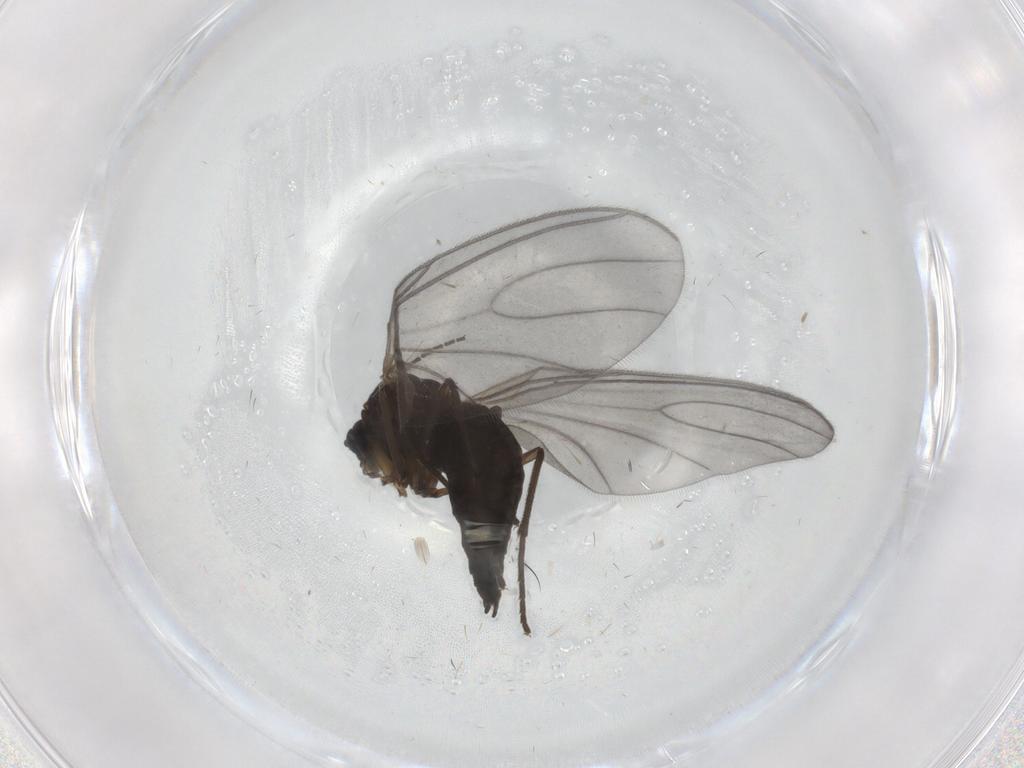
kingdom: Animalia
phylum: Arthropoda
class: Insecta
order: Diptera
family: Sciaridae
